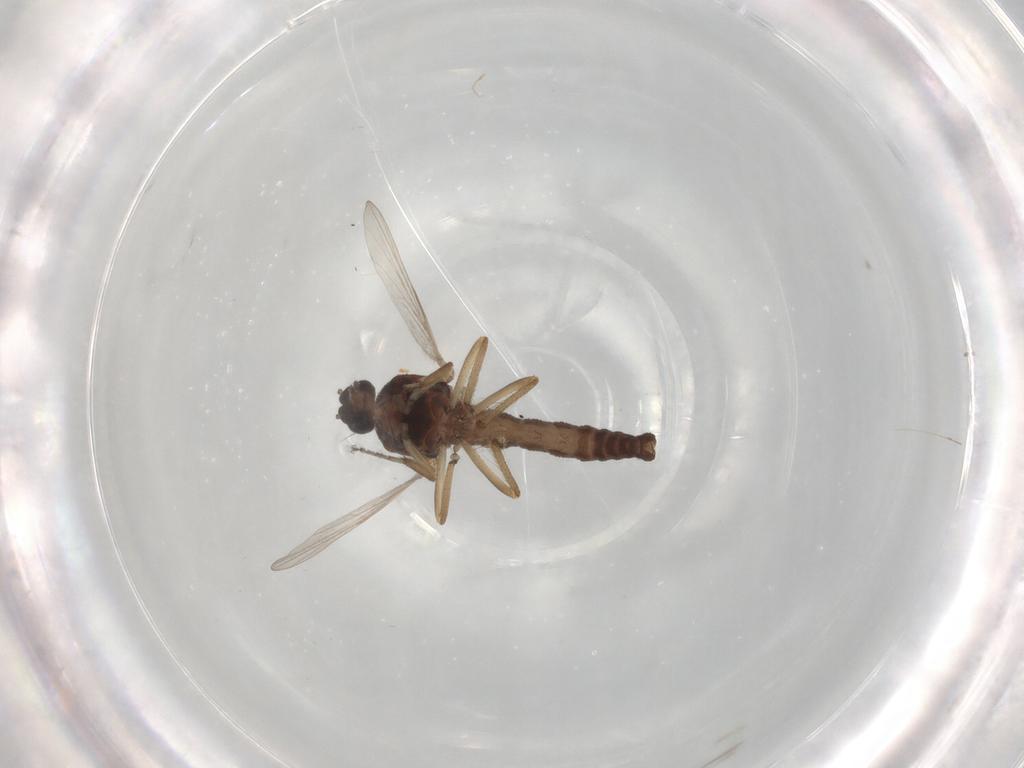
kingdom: Animalia
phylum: Arthropoda
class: Insecta
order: Diptera
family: Ceratopogonidae
